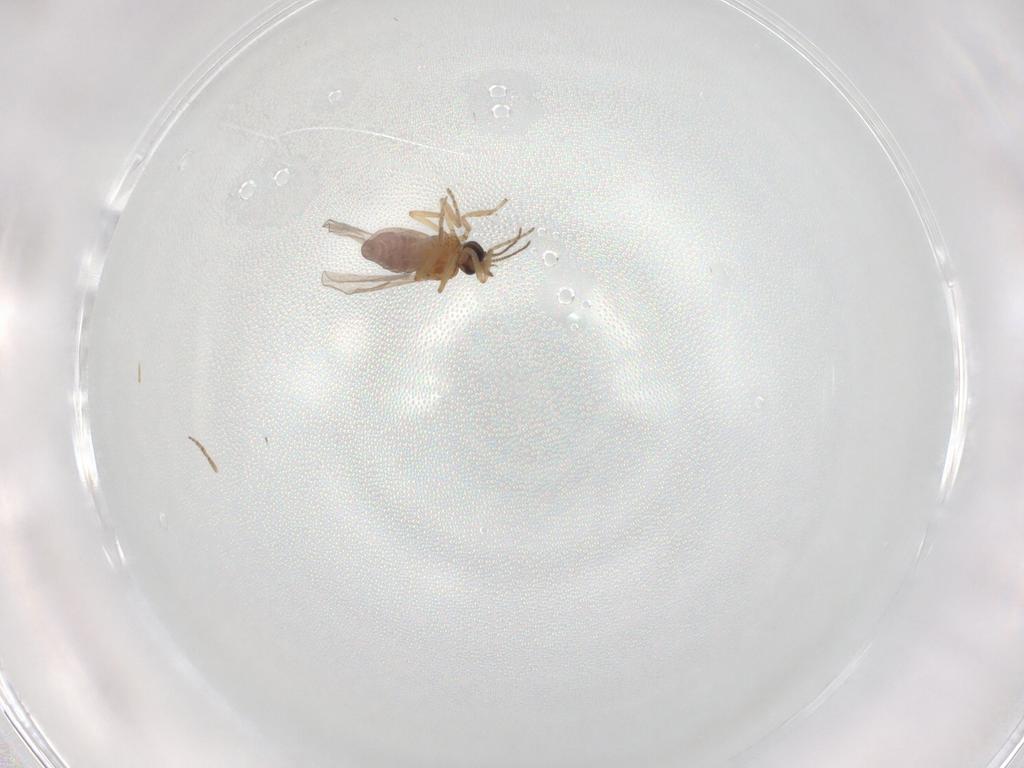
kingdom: Animalia
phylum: Arthropoda
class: Insecta
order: Diptera
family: Ceratopogonidae
